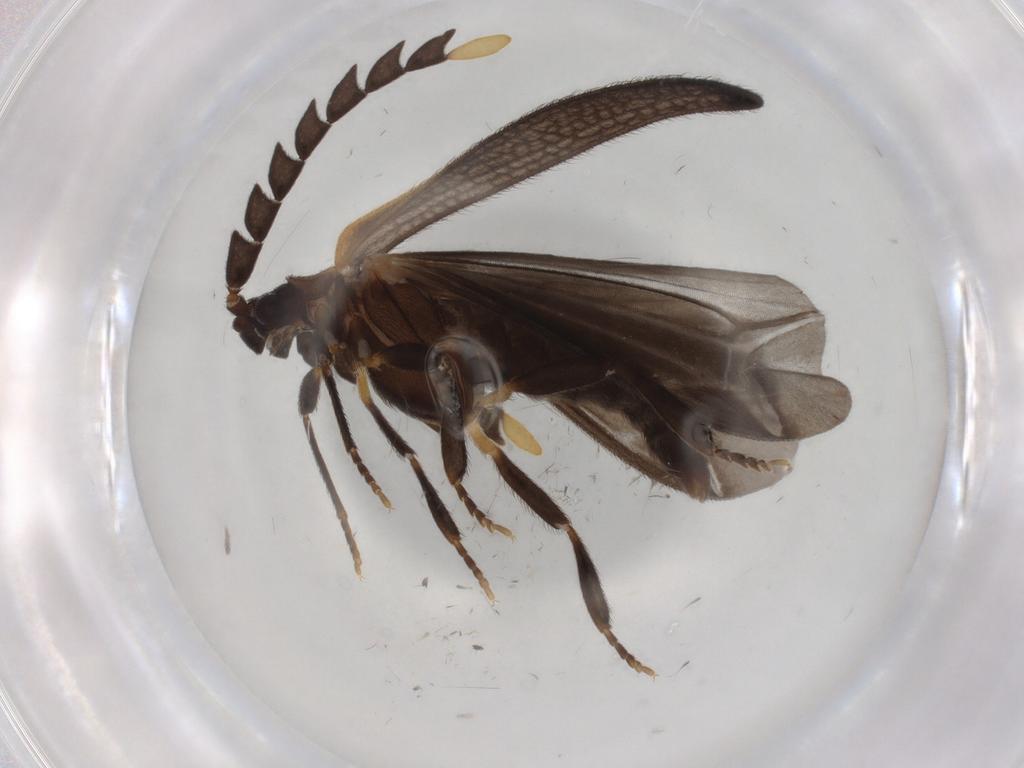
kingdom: Animalia
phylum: Arthropoda
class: Insecta
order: Coleoptera
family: Lycidae
